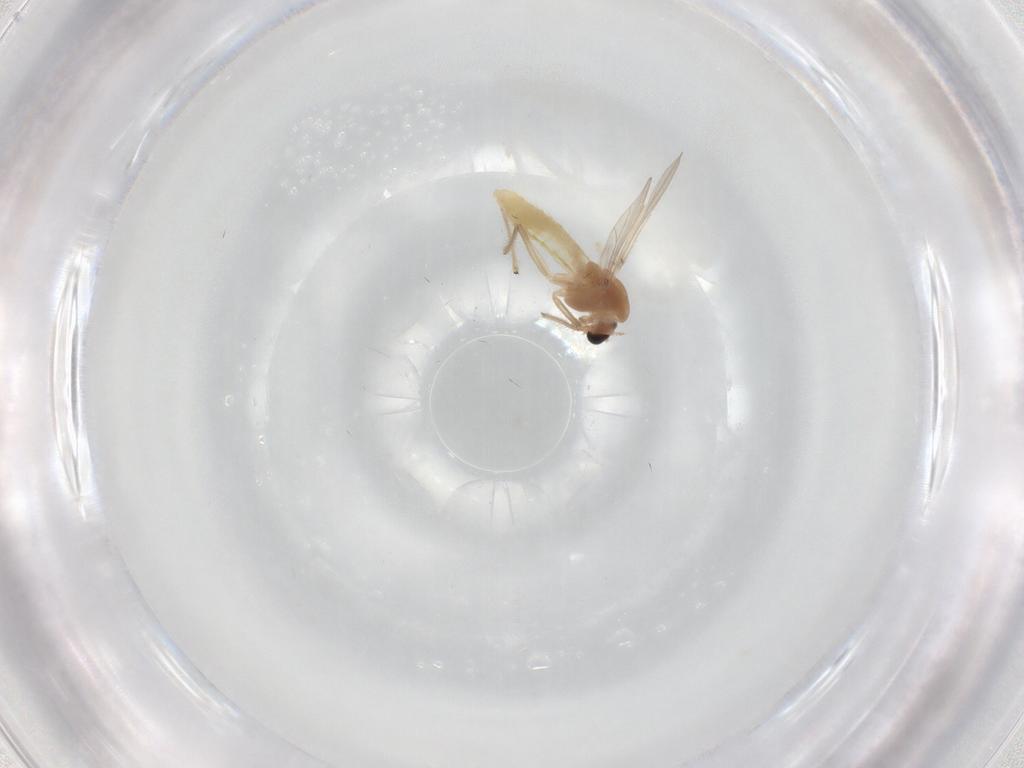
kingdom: Animalia
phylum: Arthropoda
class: Insecta
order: Diptera
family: Chironomidae
